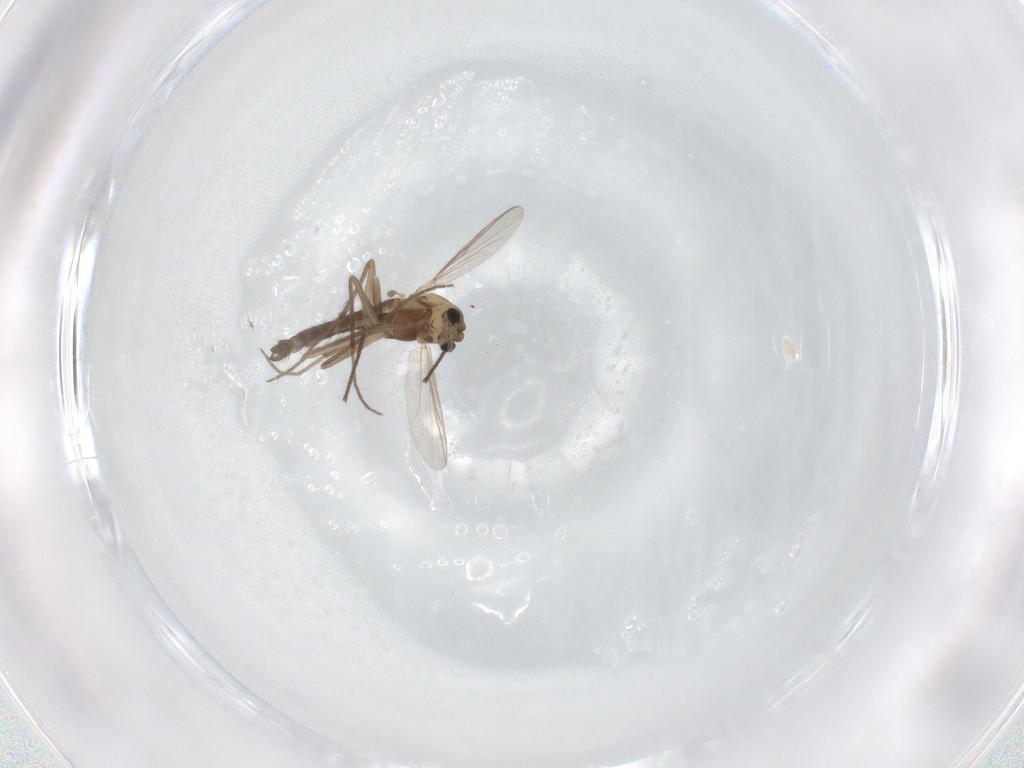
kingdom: Animalia
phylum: Arthropoda
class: Insecta
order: Diptera
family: Chironomidae
